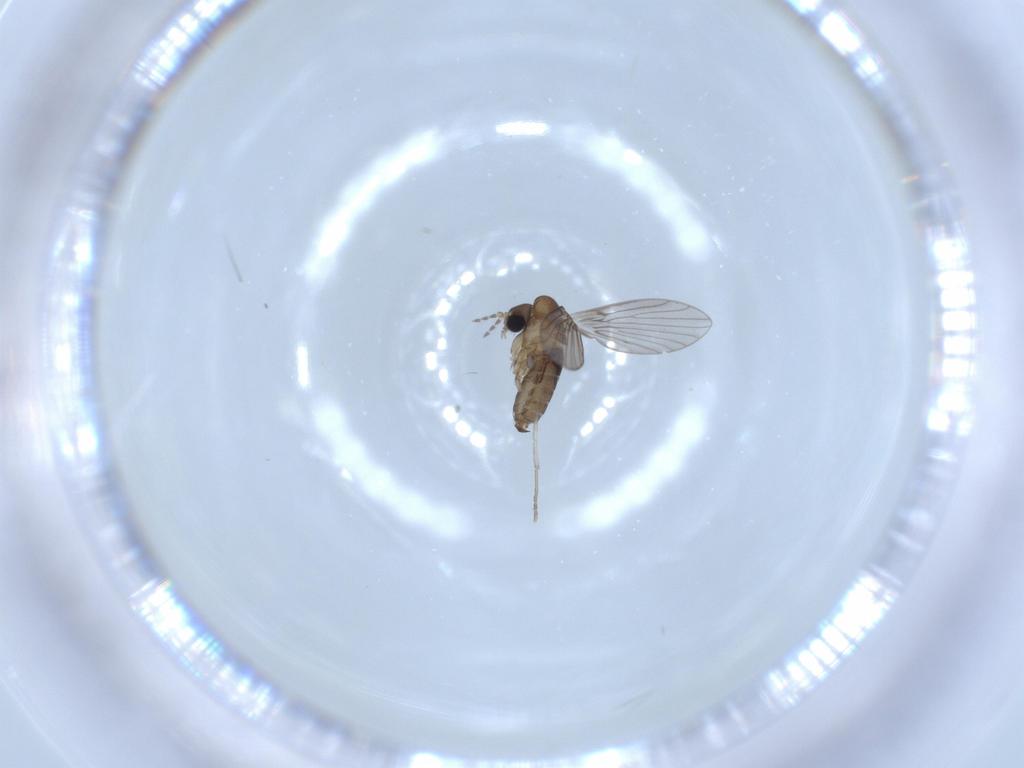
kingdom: Animalia
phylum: Arthropoda
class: Insecta
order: Diptera
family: Psychodidae
